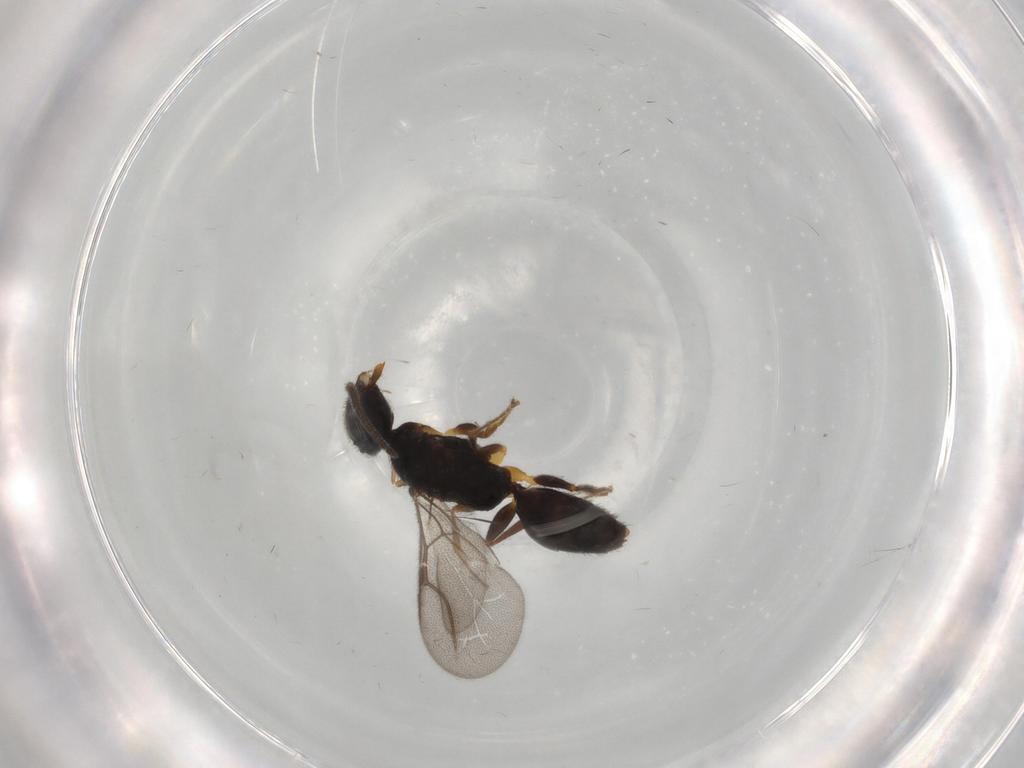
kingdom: Animalia
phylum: Arthropoda
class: Insecta
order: Hymenoptera
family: Bethylidae
